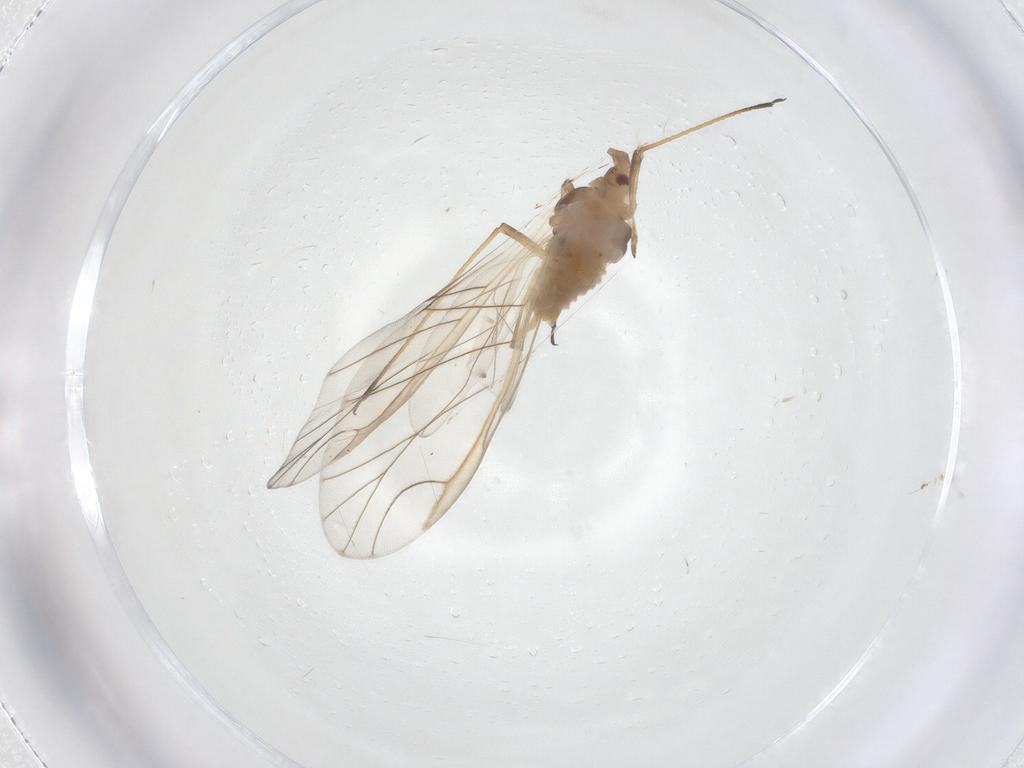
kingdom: Animalia
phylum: Arthropoda
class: Insecta
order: Hemiptera
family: Aphididae
